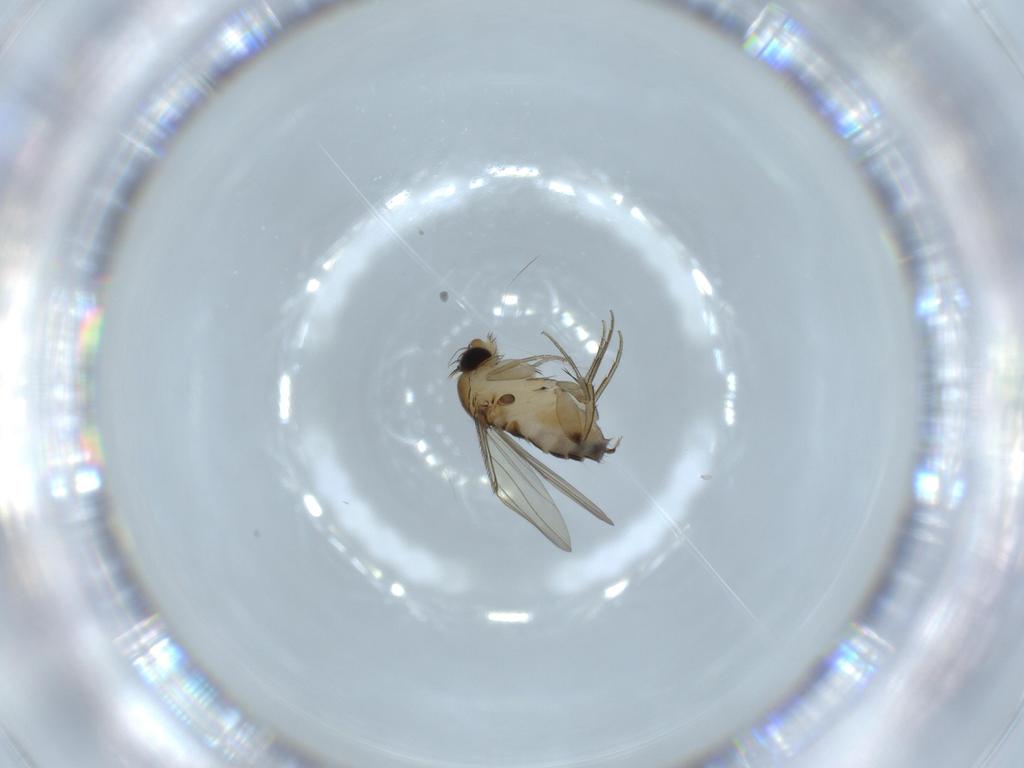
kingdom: Animalia
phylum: Arthropoda
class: Insecta
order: Diptera
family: Phoridae
